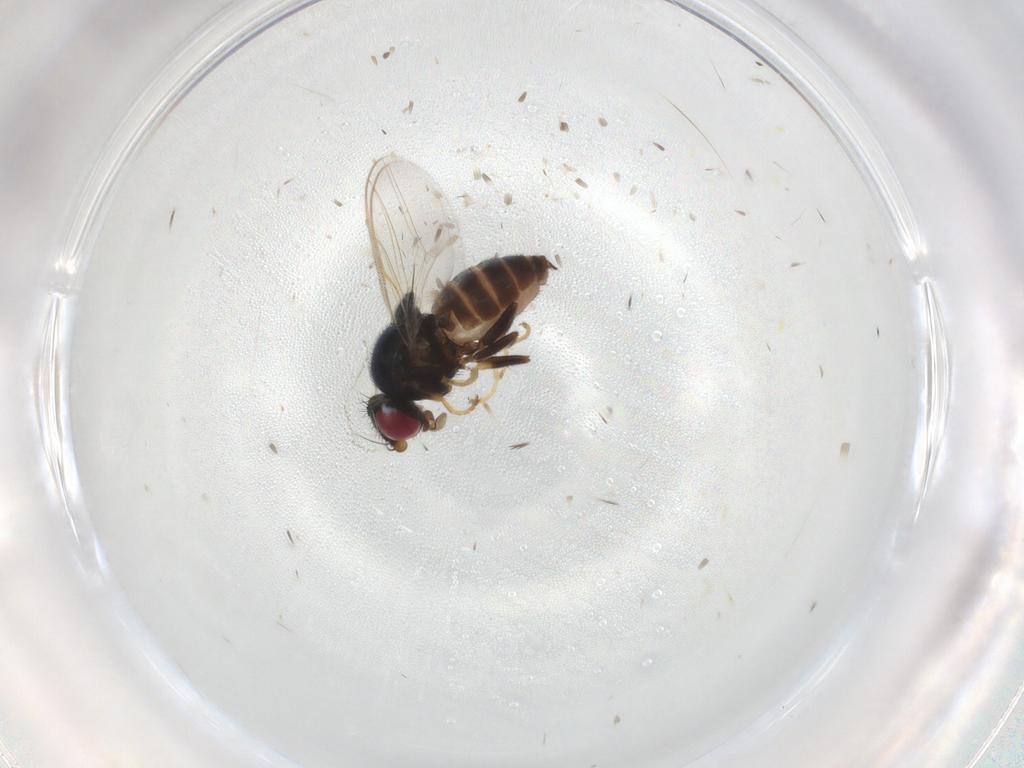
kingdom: Animalia
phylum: Arthropoda
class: Insecta
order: Diptera
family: Chloropidae
